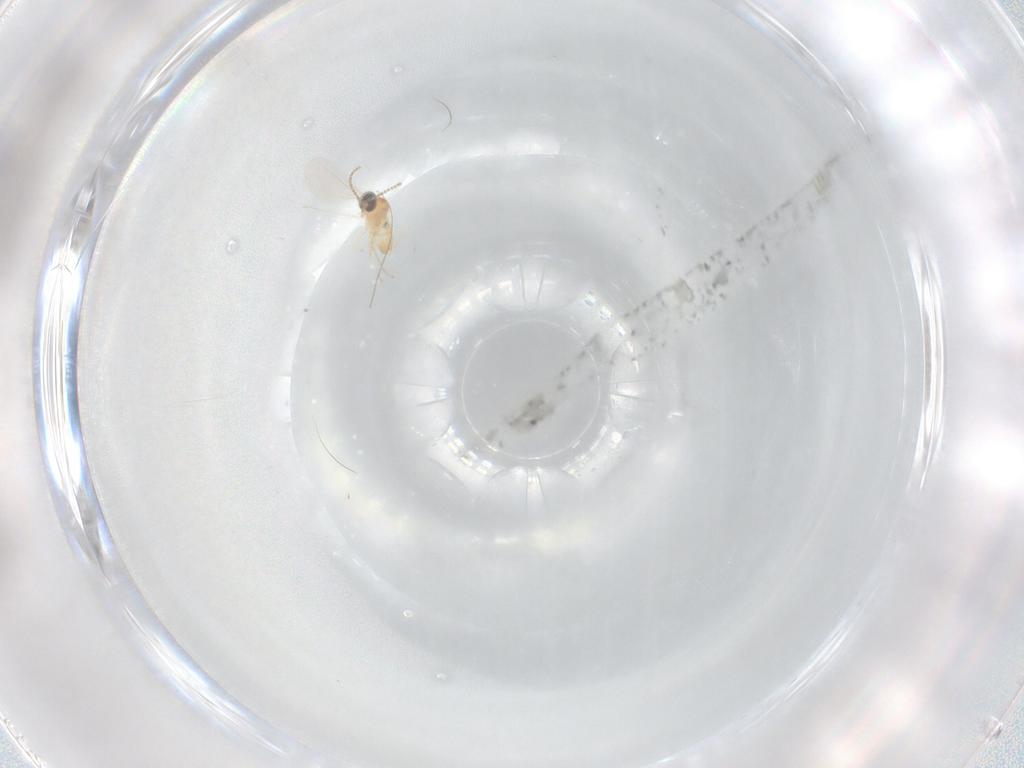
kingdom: Animalia
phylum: Arthropoda
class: Insecta
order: Diptera
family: Cecidomyiidae
